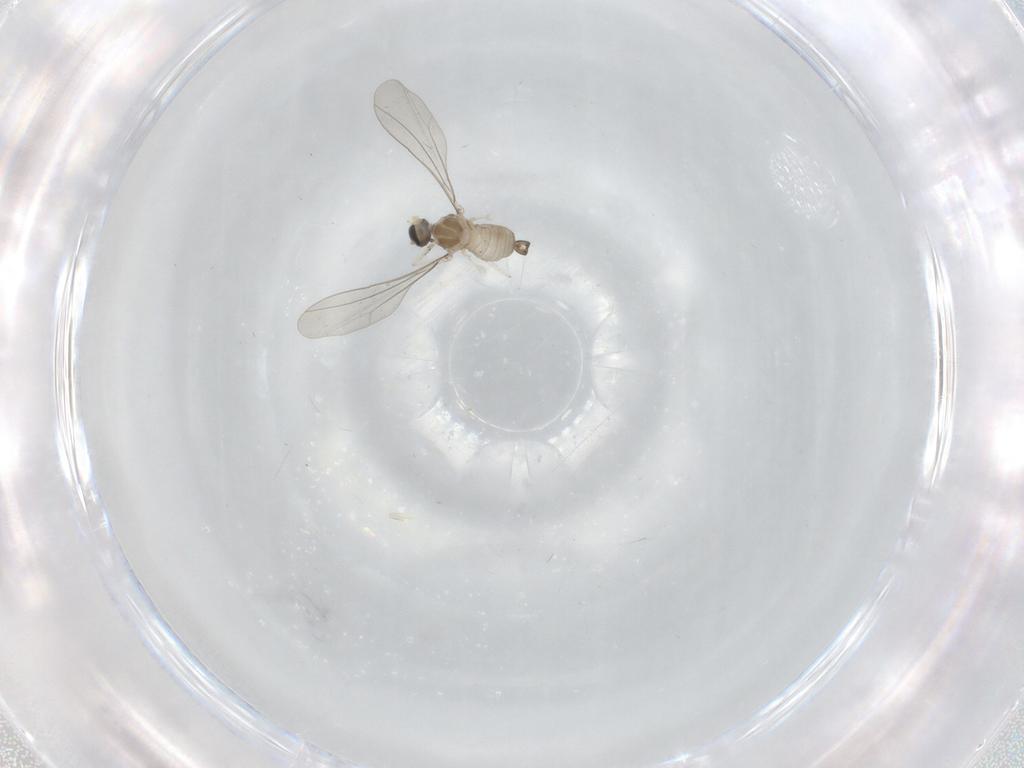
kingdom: Animalia
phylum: Arthropoda
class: Insecta
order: Diptera
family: Cecidomyiidae
